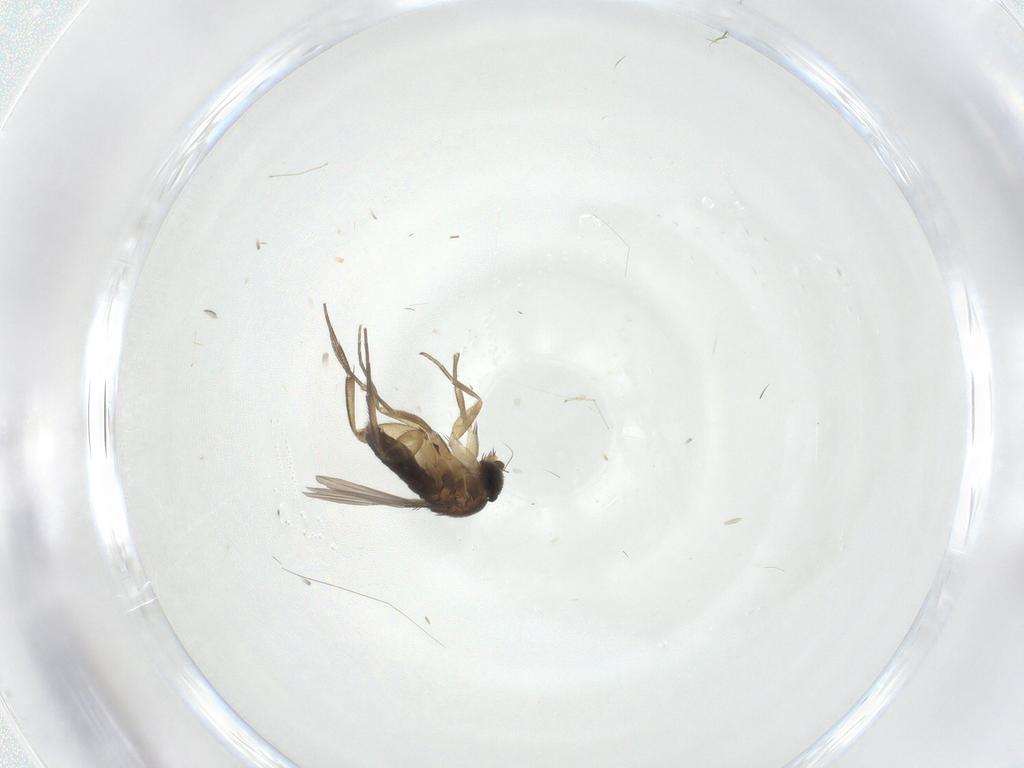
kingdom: Animalia
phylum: Arthropoda
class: Insecta
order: Diptera
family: Phoridae
